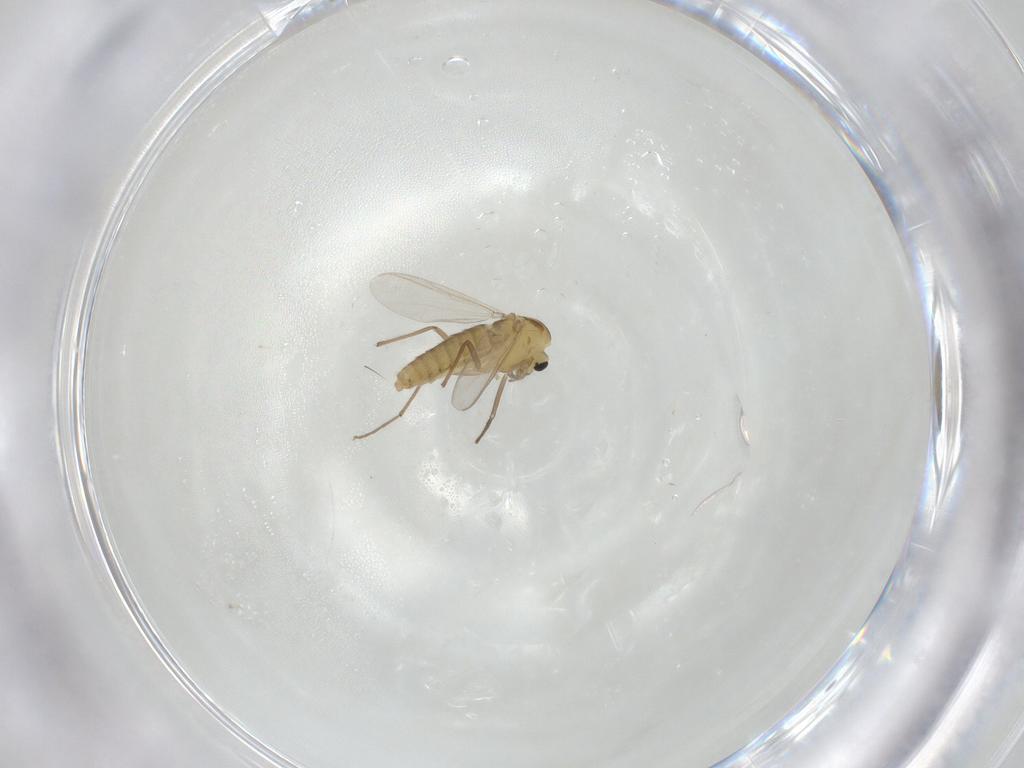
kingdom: Animalia
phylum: Arthropoda
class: Insecta
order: Diptera
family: Chironomidae
